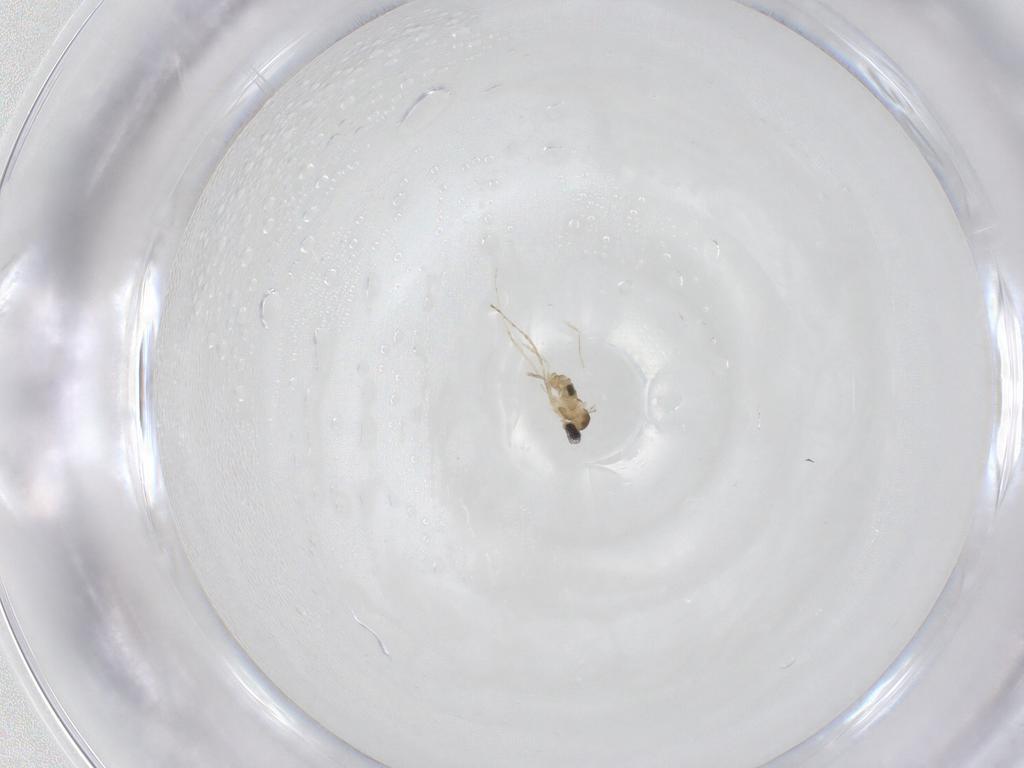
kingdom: Animalia
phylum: Arthropoda
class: Insecta
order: Diptera
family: Cecidomyiidae
